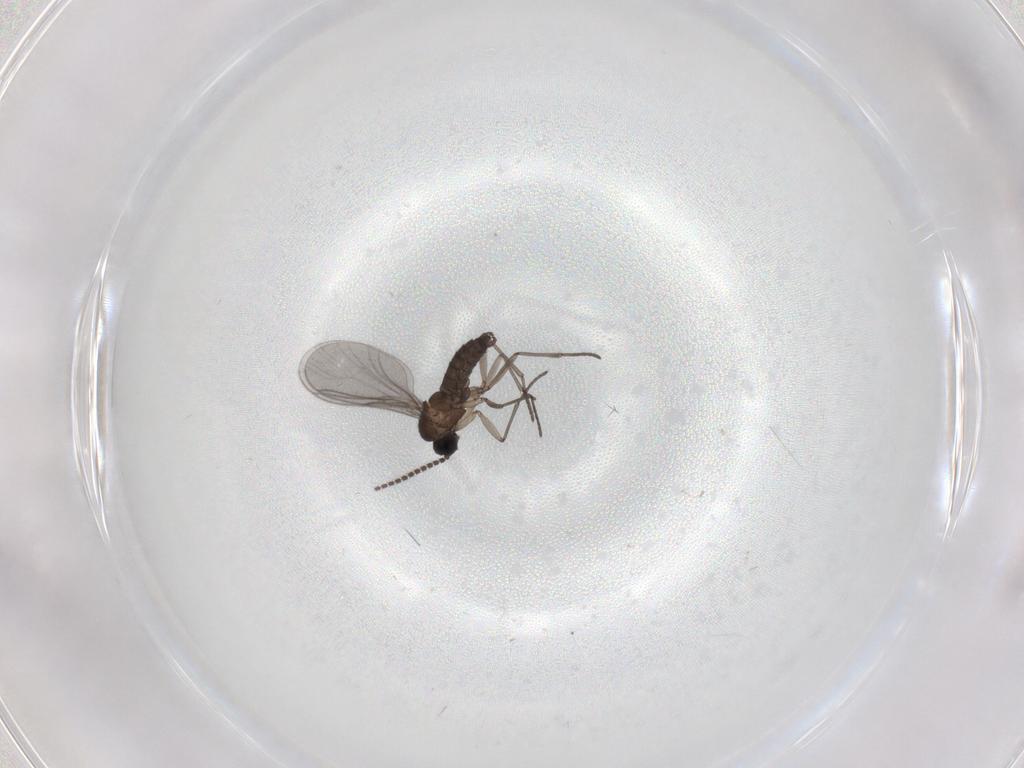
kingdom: Animalia
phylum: Arthropoda
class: Insecta
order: Diptera
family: Sciaridae
